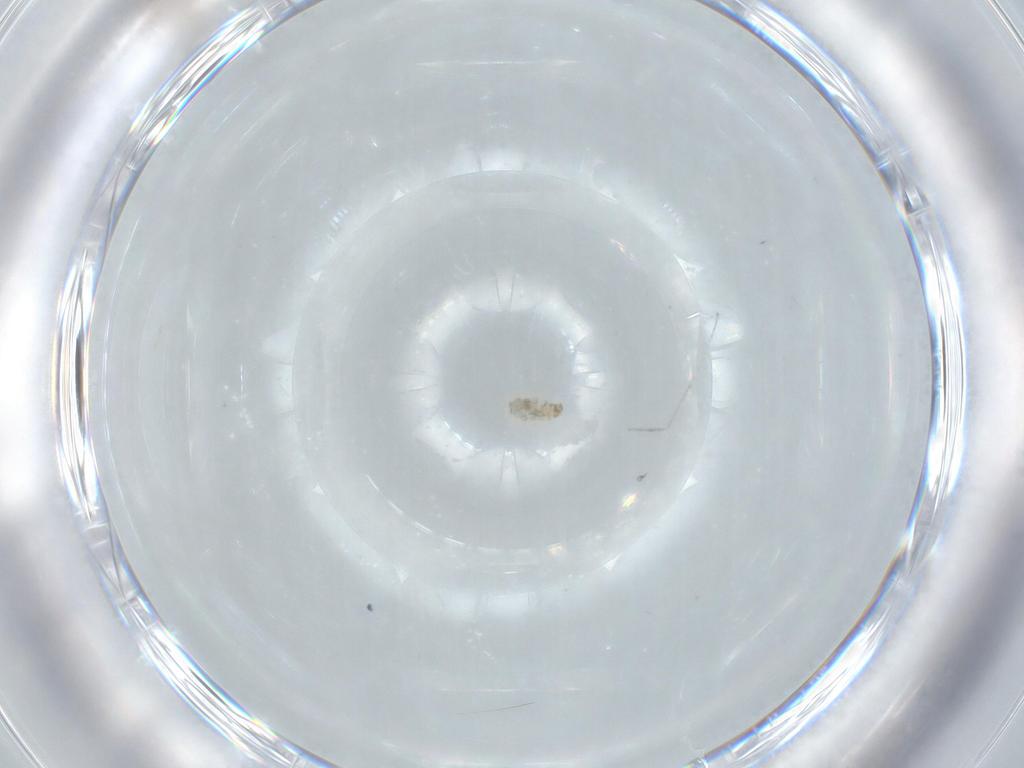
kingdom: Animalia
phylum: Arthropoda
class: Insecta
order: Diptera
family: Cecidomyiidae
